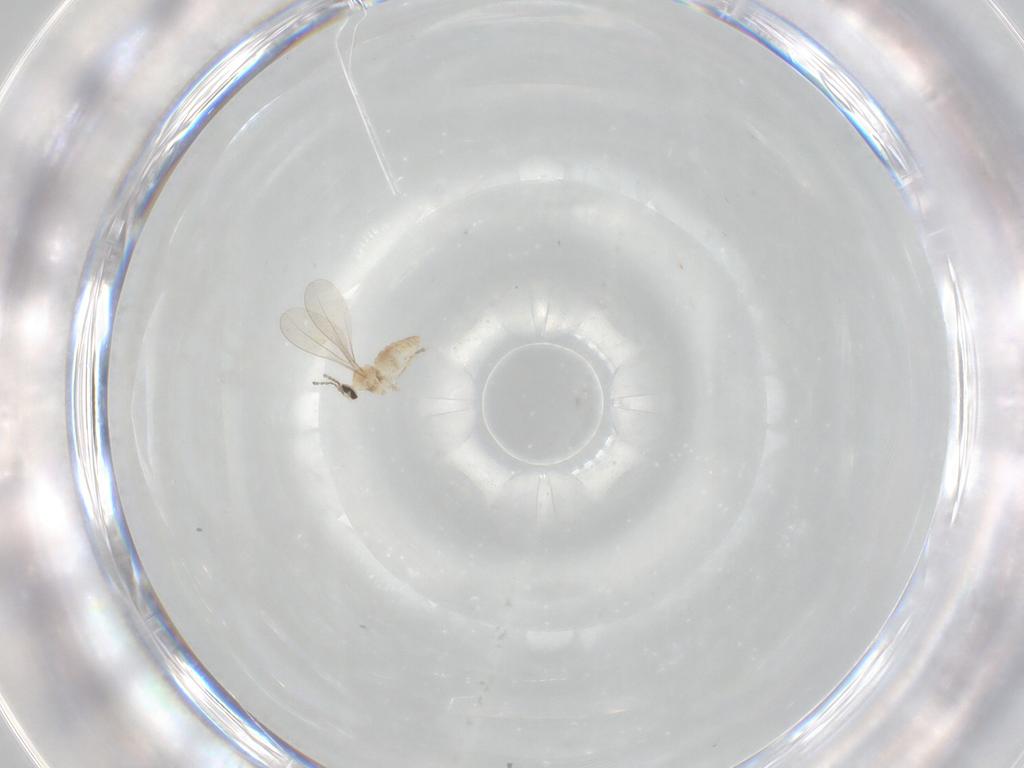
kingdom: Animalia
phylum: Arthropoda
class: Insecta
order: Diptera
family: Cecidomyiidae
